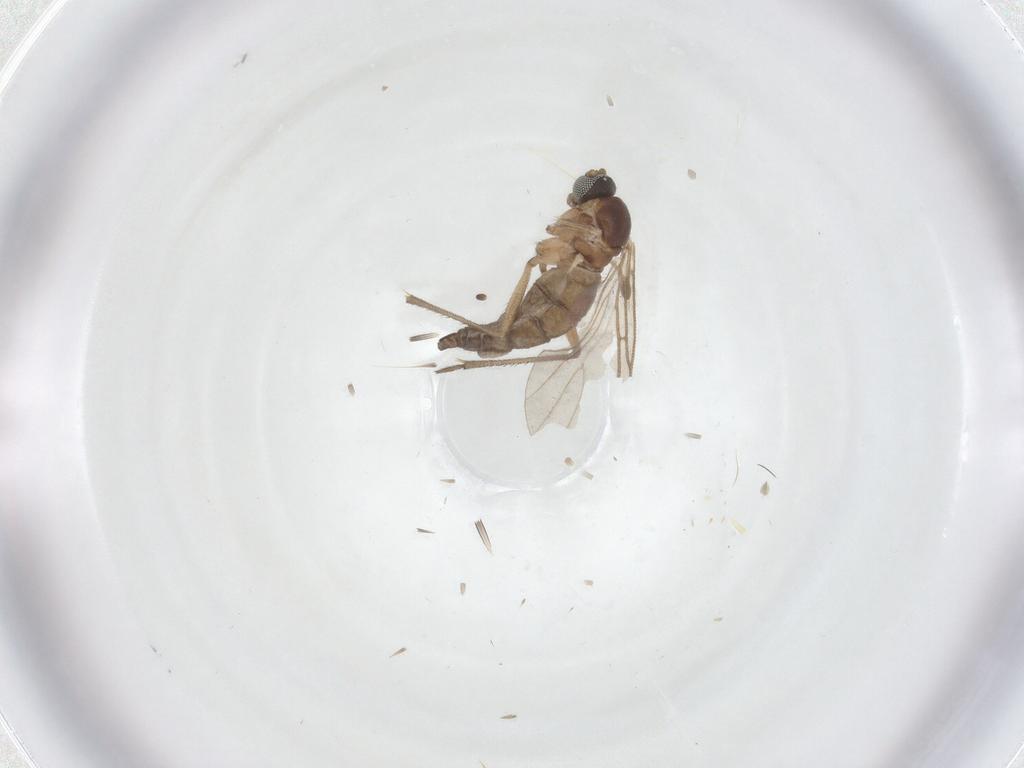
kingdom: Animalia
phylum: Arthropoda
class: Insecta
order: Diptera
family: Sciaridae
